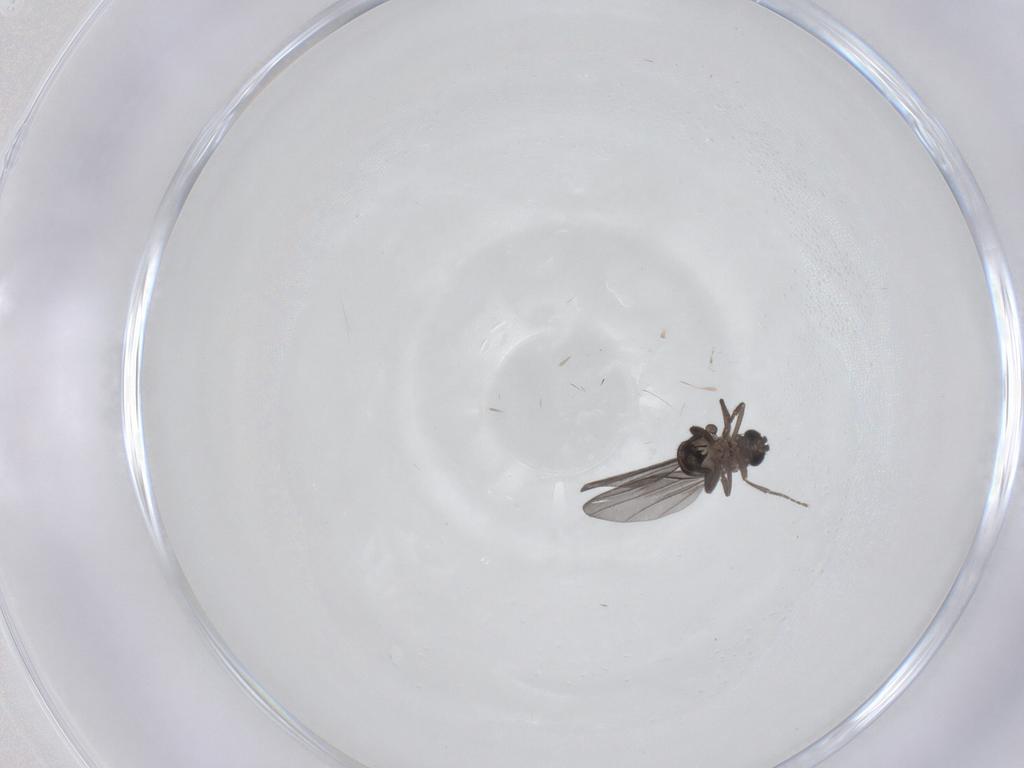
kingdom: Animalia
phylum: Arthropoda
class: Insecta
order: Diptera
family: Phoridae
